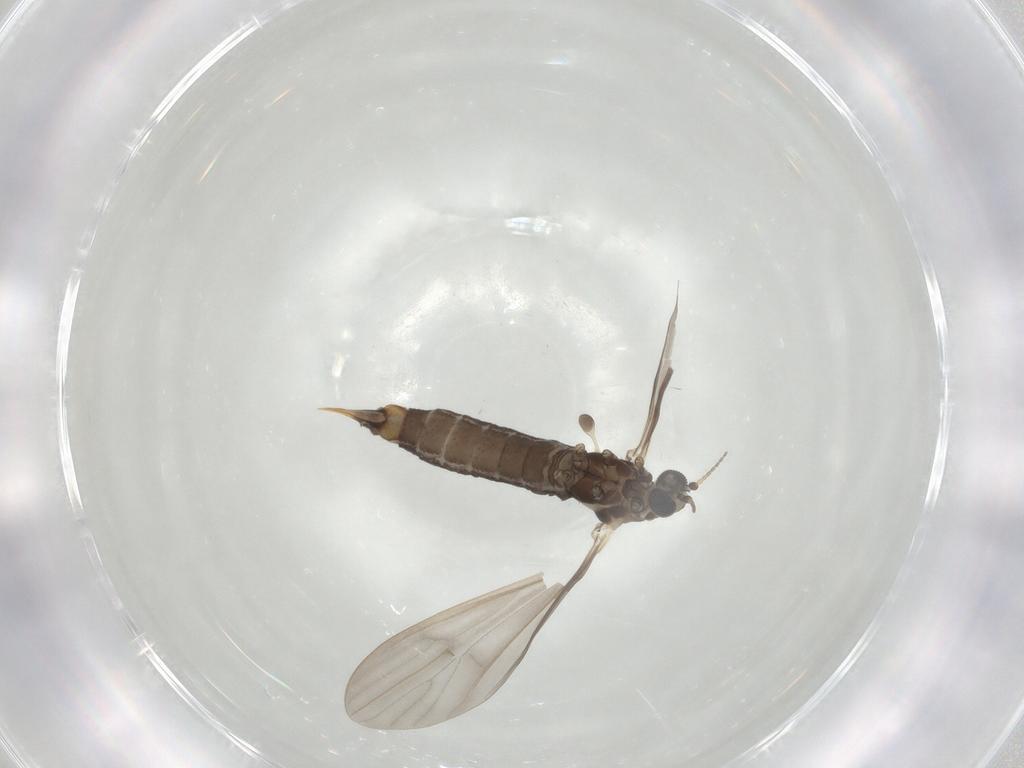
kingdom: Animalia
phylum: Arthropoda
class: Insecta
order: Diptera
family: Limoniidae
